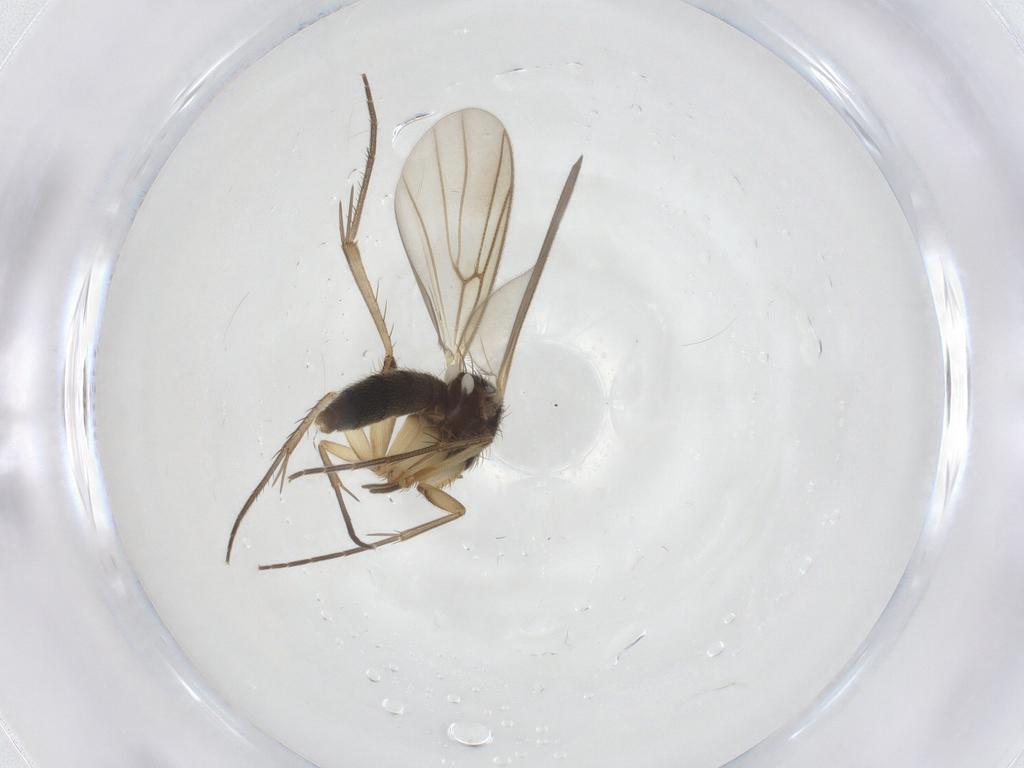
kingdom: Animalia
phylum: Arthropoda
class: Insecta
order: Diptera
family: Mycetophilidae
